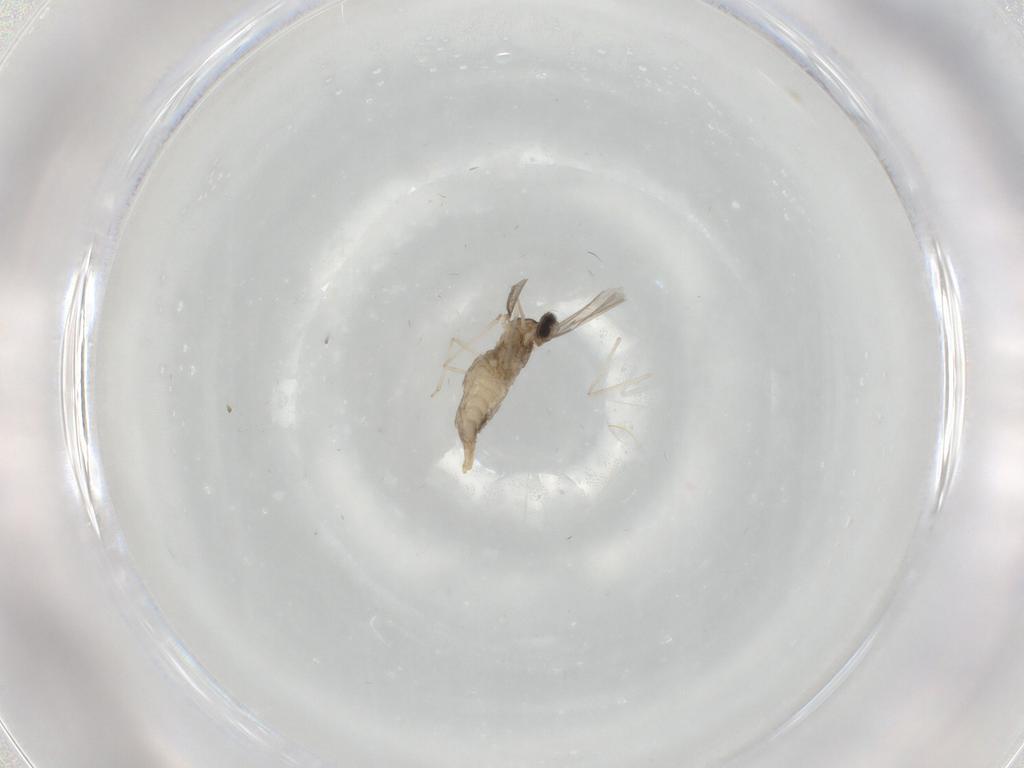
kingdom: Animalia
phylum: Arthropoda
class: Insecta
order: Diptera
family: Cecidomyiidae
